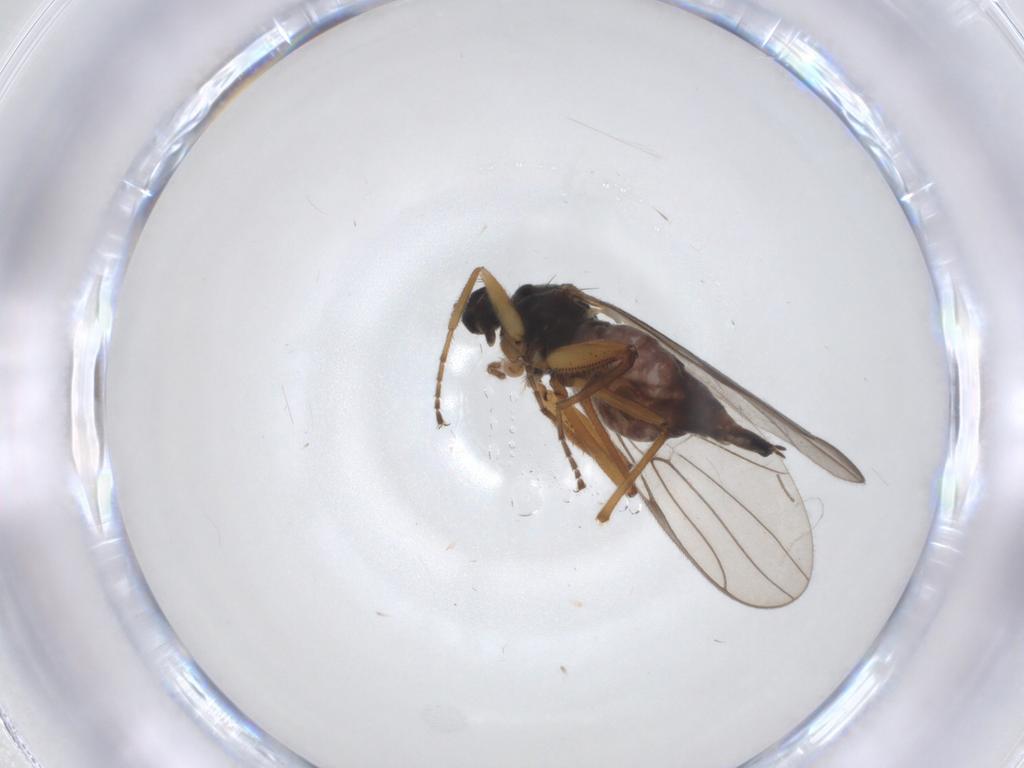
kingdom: Animalia
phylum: Arthropoda
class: Insecta
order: Diptera
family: Hybotidae
